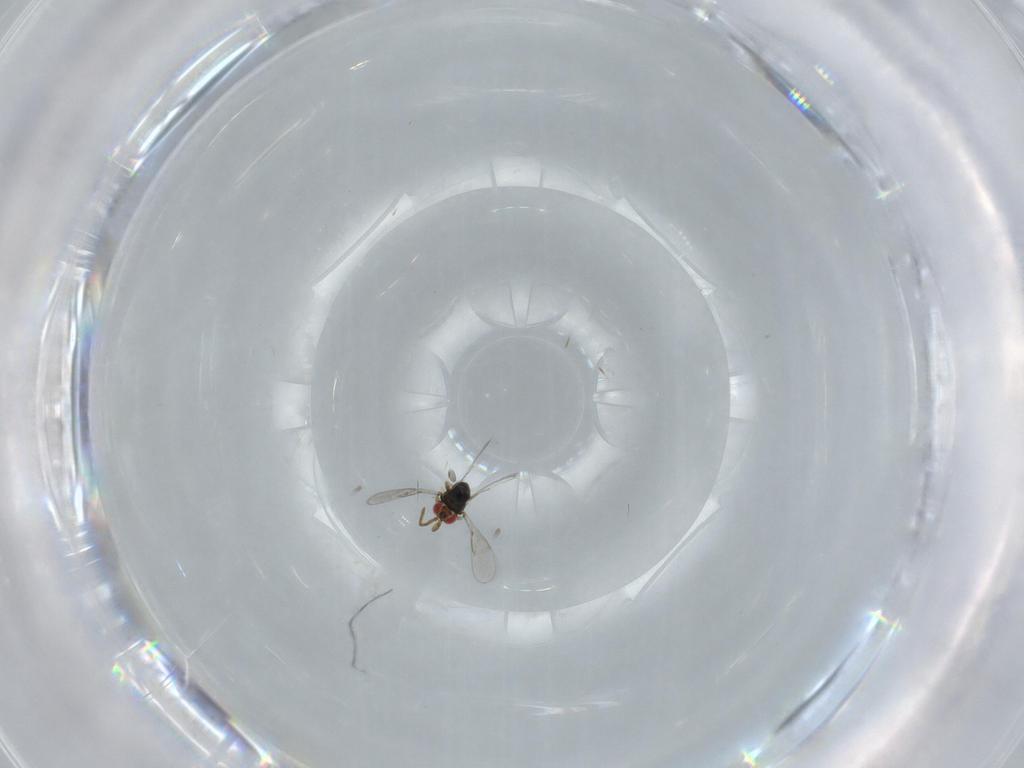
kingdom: Animalia
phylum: Arthropoda
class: Insecta
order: Hymenoptera
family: Azotidae
